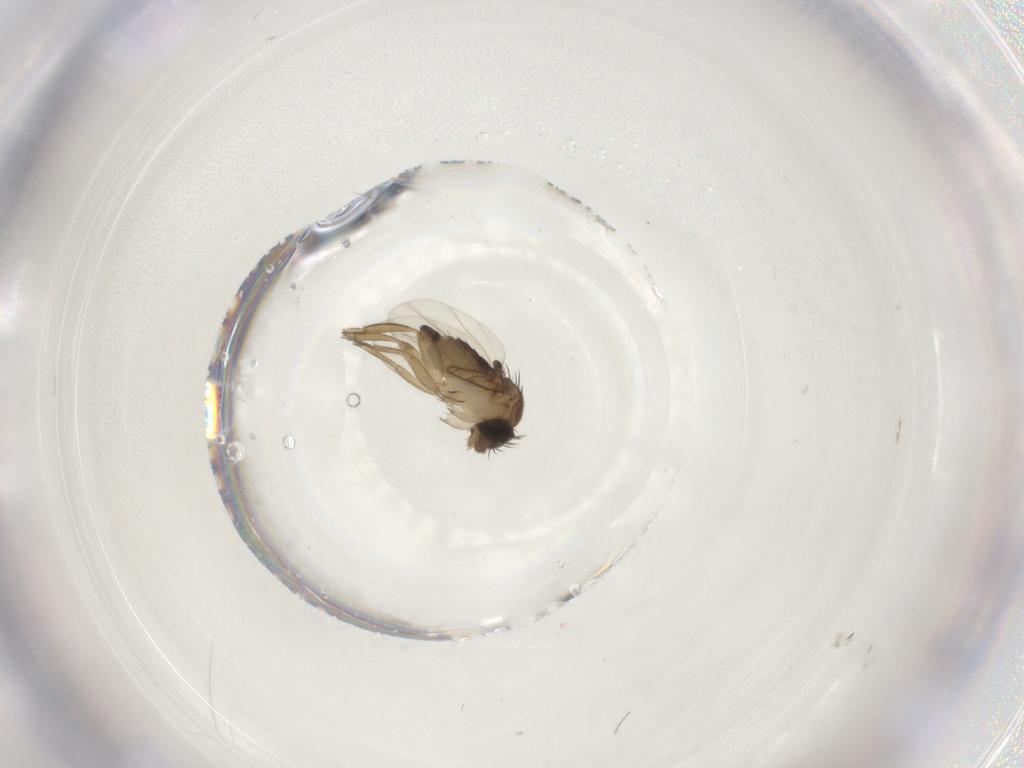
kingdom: Animalia
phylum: Arthropoda
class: Insecta
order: Diptera
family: Phoridae
